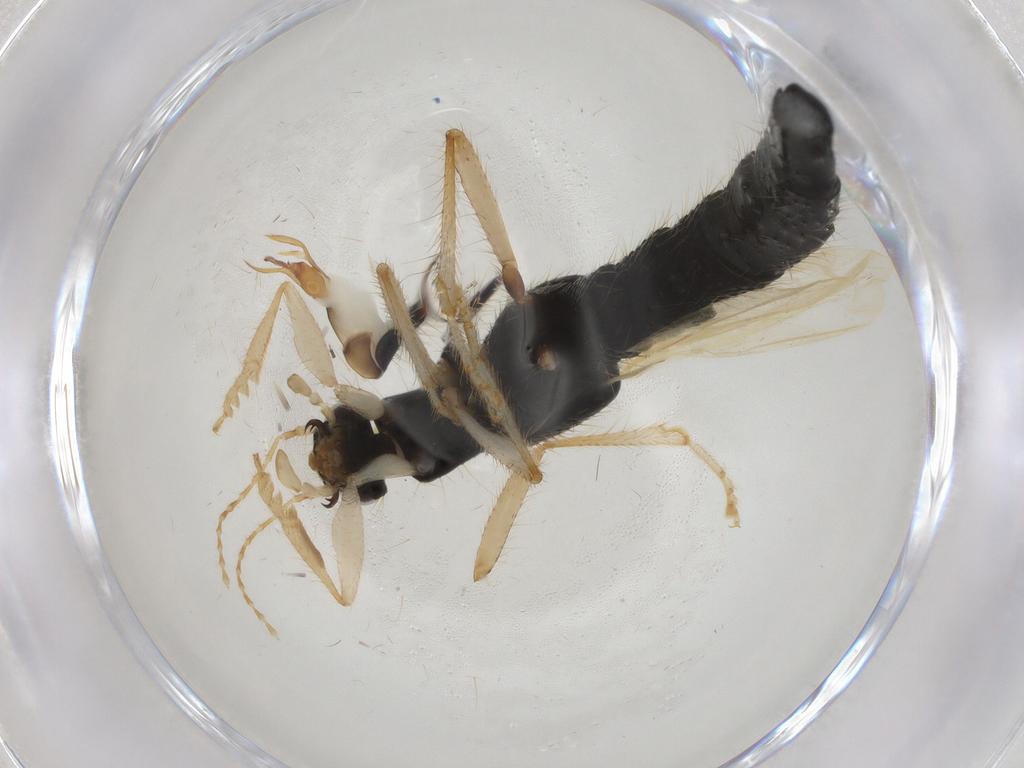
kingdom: Animalia
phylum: Arthropoda
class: Insecta
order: Coleoptera
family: Staphylinidae
